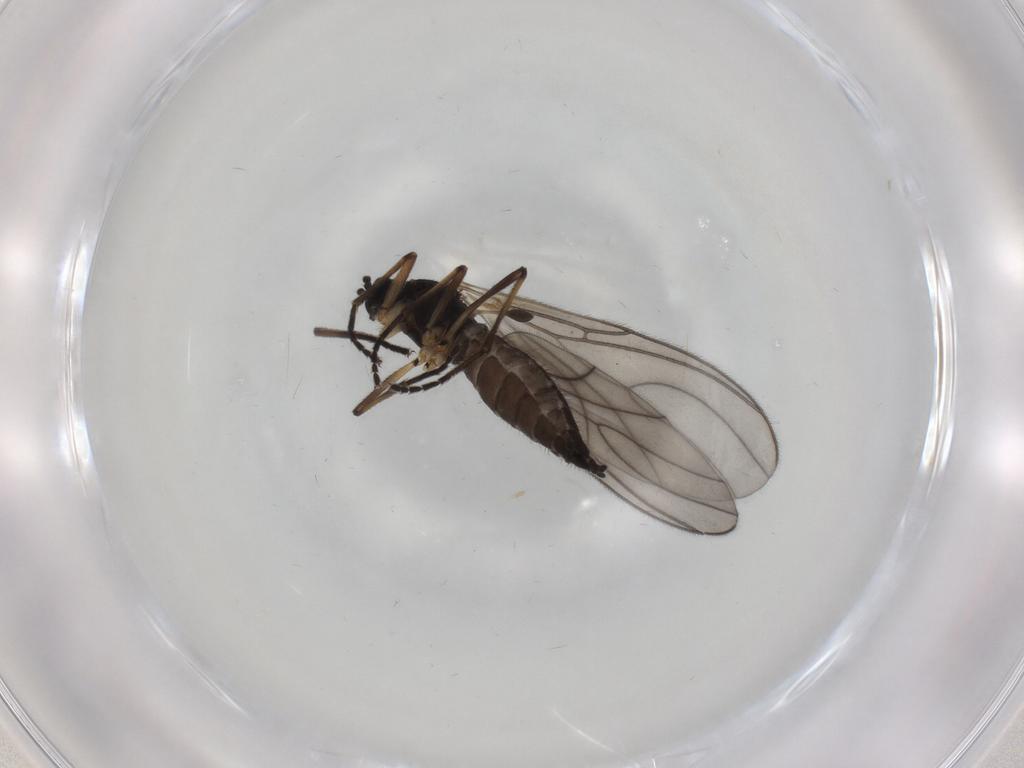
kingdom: Animalia
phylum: Arthropoda
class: Insecta
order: Diptera
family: Sciaridae
